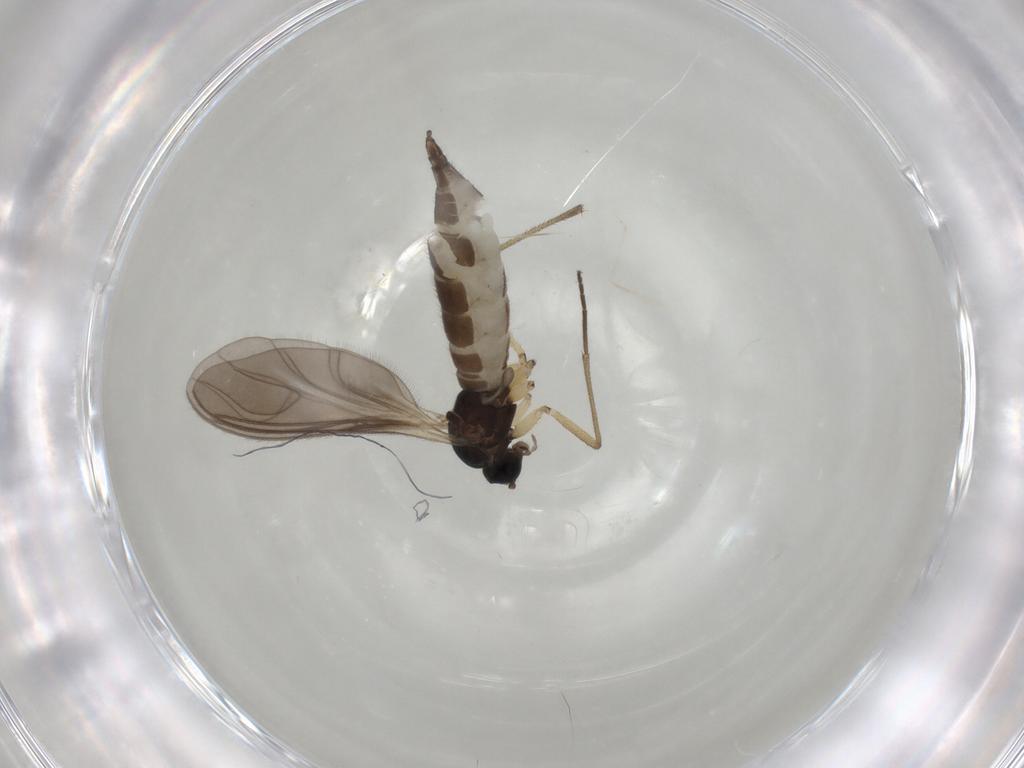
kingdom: Animalia
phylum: Arthropoda
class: Insecta
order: Diptera
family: Sciaridae
